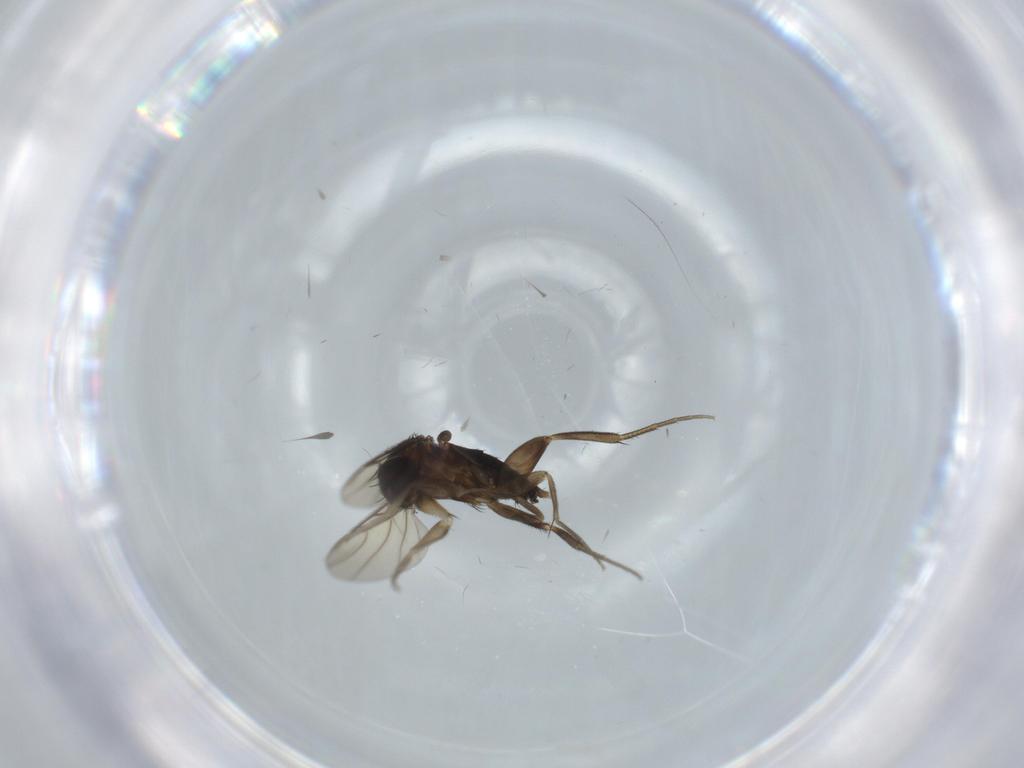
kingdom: Animalia
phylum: Arthropoda
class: Insecta
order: Diptera
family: Phoridae
